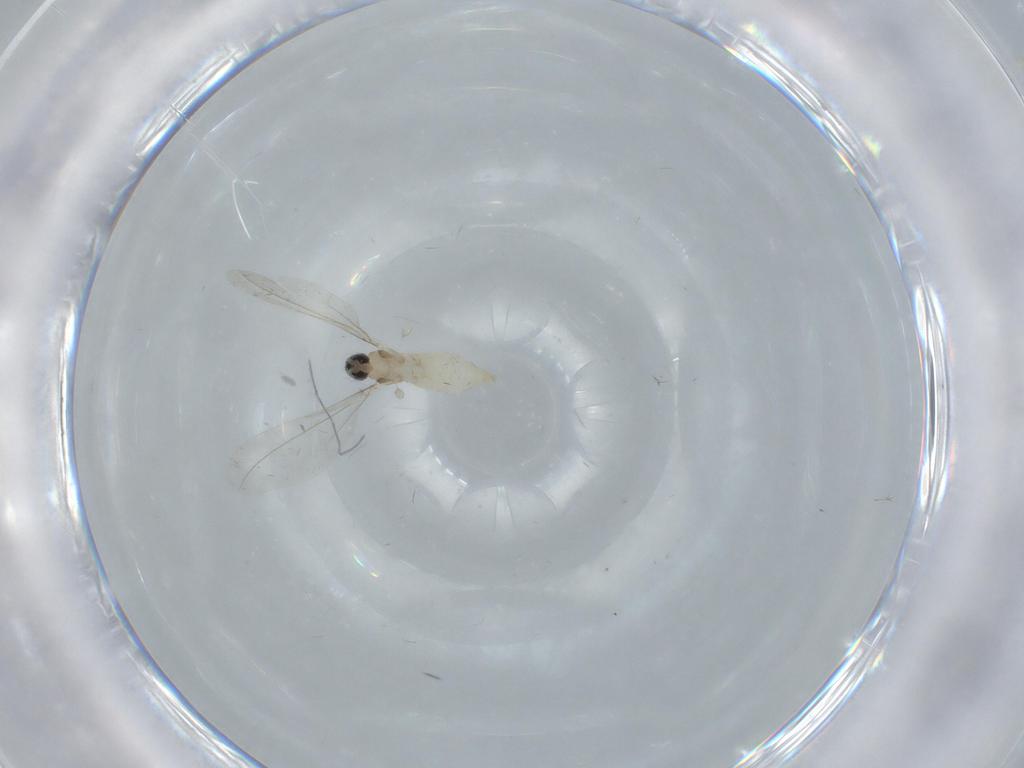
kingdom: Animalia
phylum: Arthropoda
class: Insecta
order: Diptera
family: Cecidomyiidae
